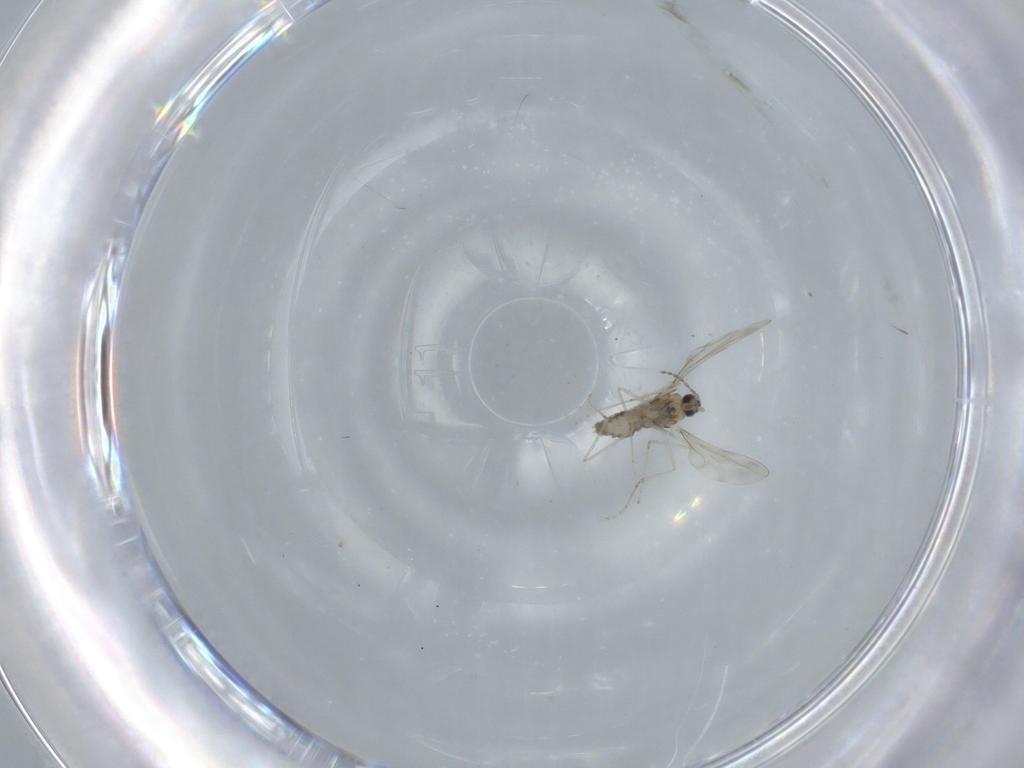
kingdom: Animalia
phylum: Arthropoda
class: Insecta
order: Diptera
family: Cecidomyiidae
